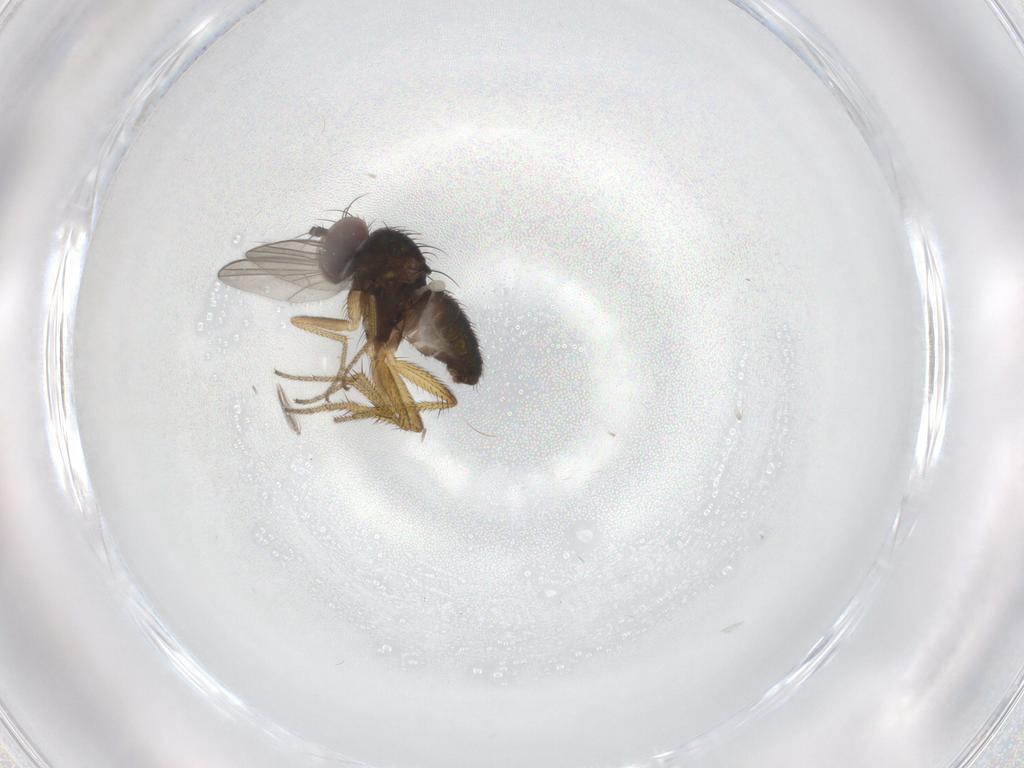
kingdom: Animalia
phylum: Arthropoda
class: Insecta
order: Diptera
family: Dolichopodidae
